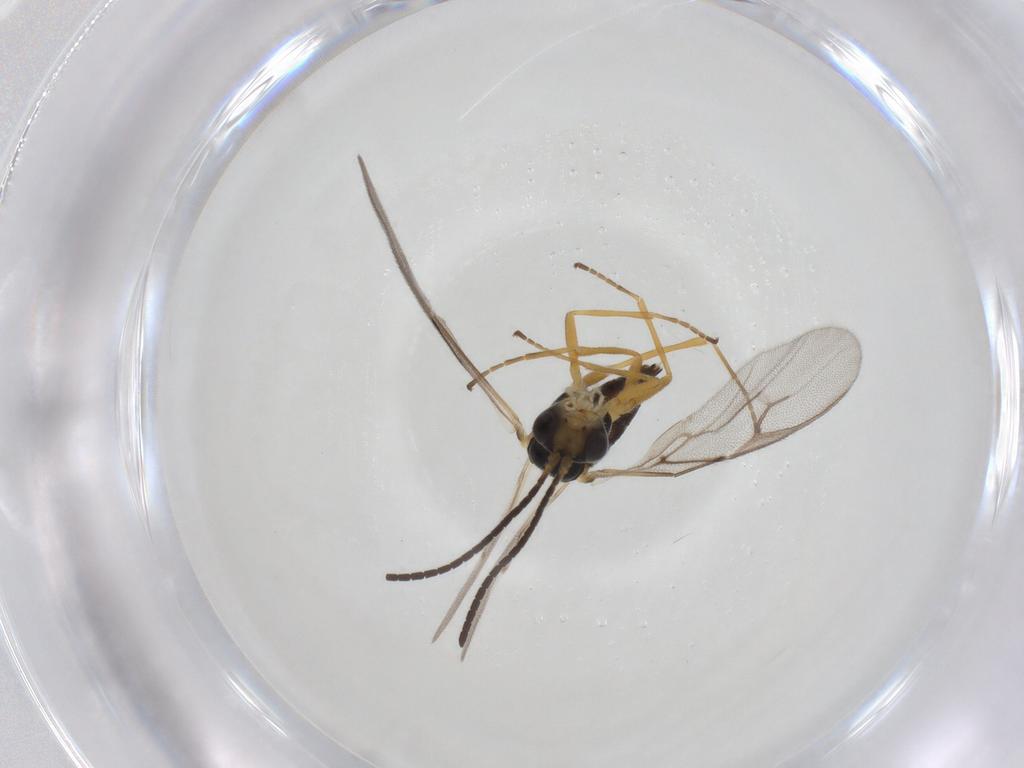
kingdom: Animalia
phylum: Arthropoda
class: Insecta
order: Hymenoptera
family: Braconidae
